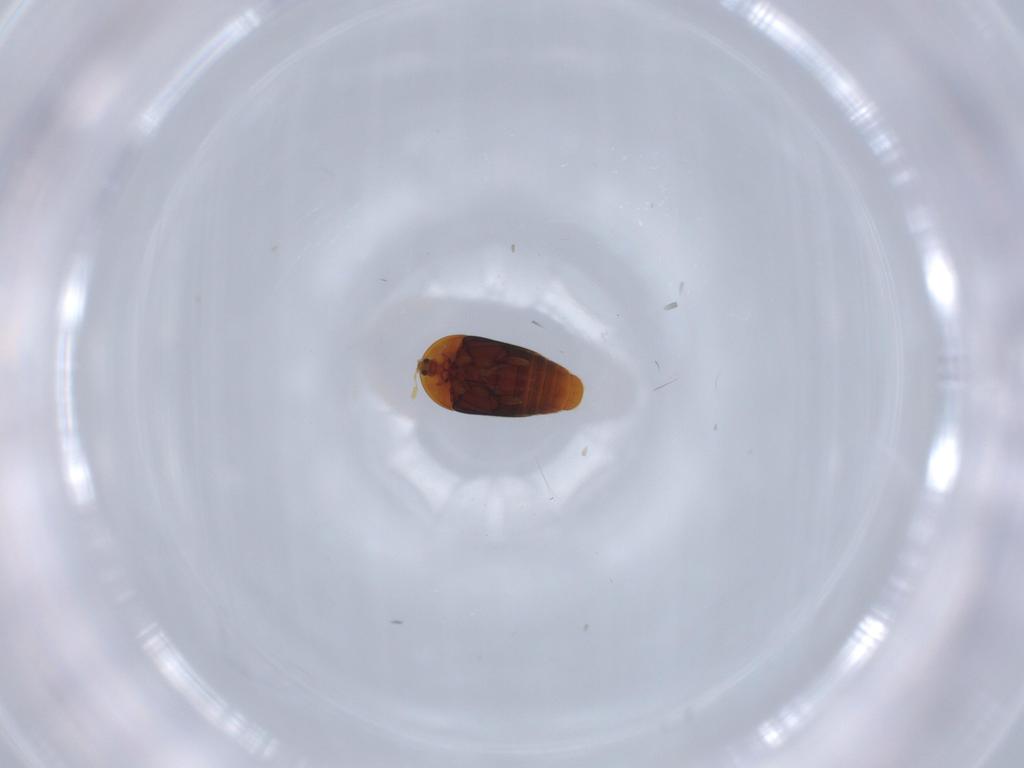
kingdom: Animalia
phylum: Arthropoda
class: Insecta
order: Coleoptera
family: Corylophidae
